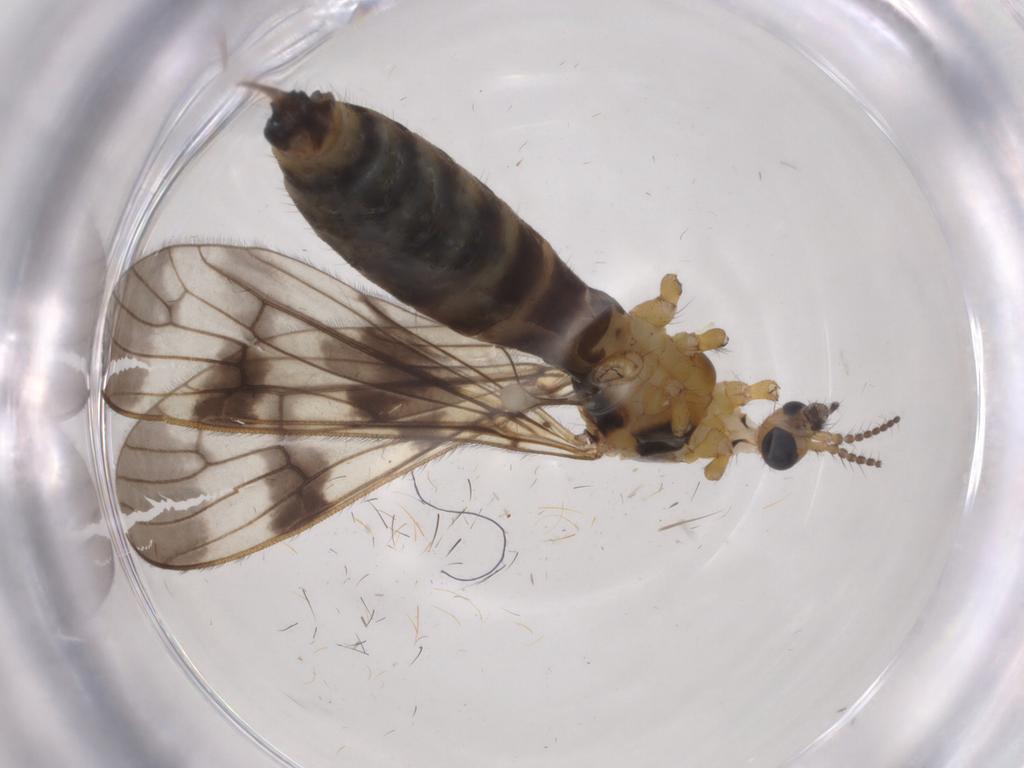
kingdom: Animalia
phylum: Arthropoda
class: Insecta
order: Diptera
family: Limoniidae
